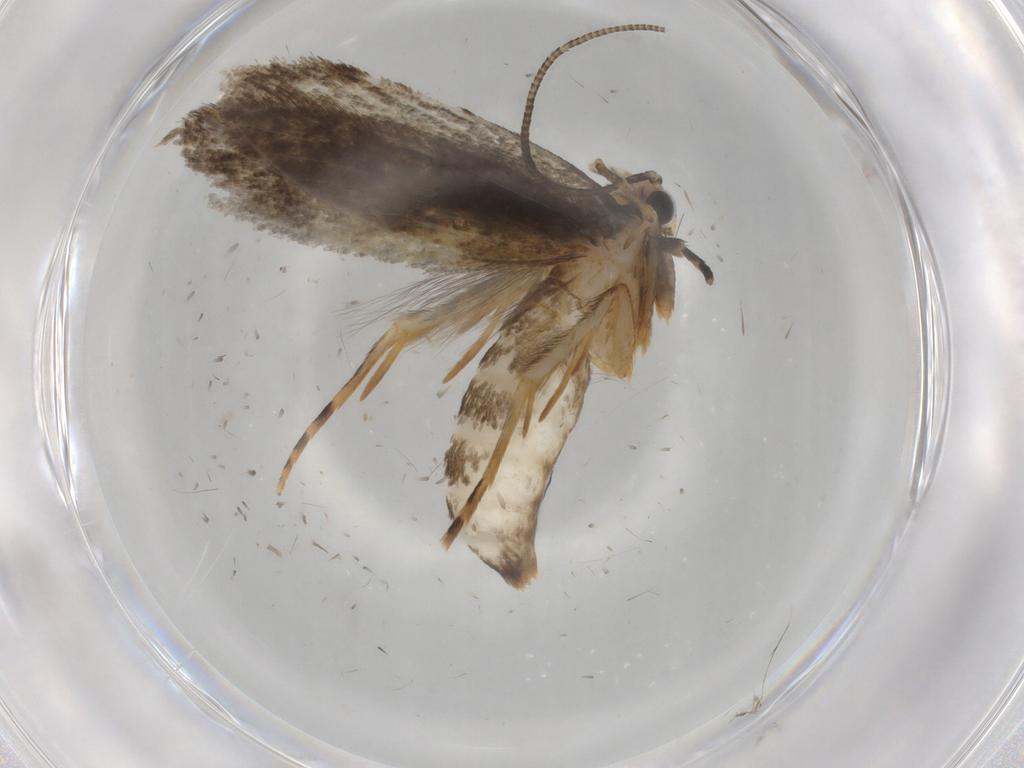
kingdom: Animalia
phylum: Arthropoda
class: Insecta
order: Lepidoptera
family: Tineidae
